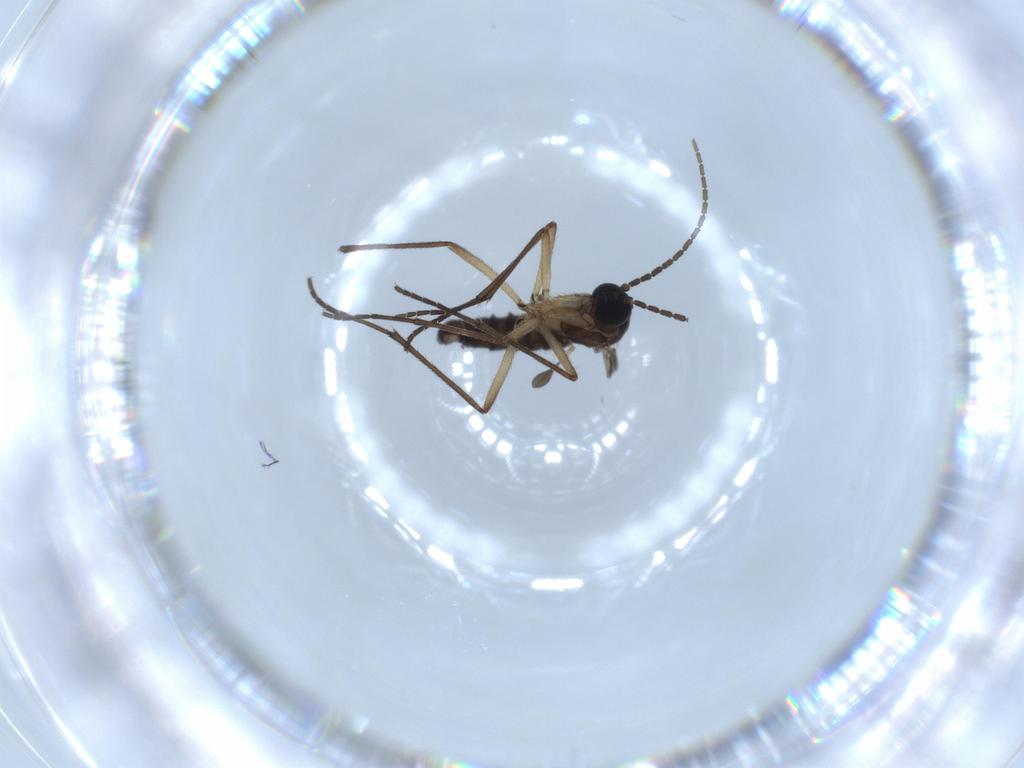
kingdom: Animalia
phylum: Arthropoda
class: Insecta
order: Diptera
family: Sciaridae
